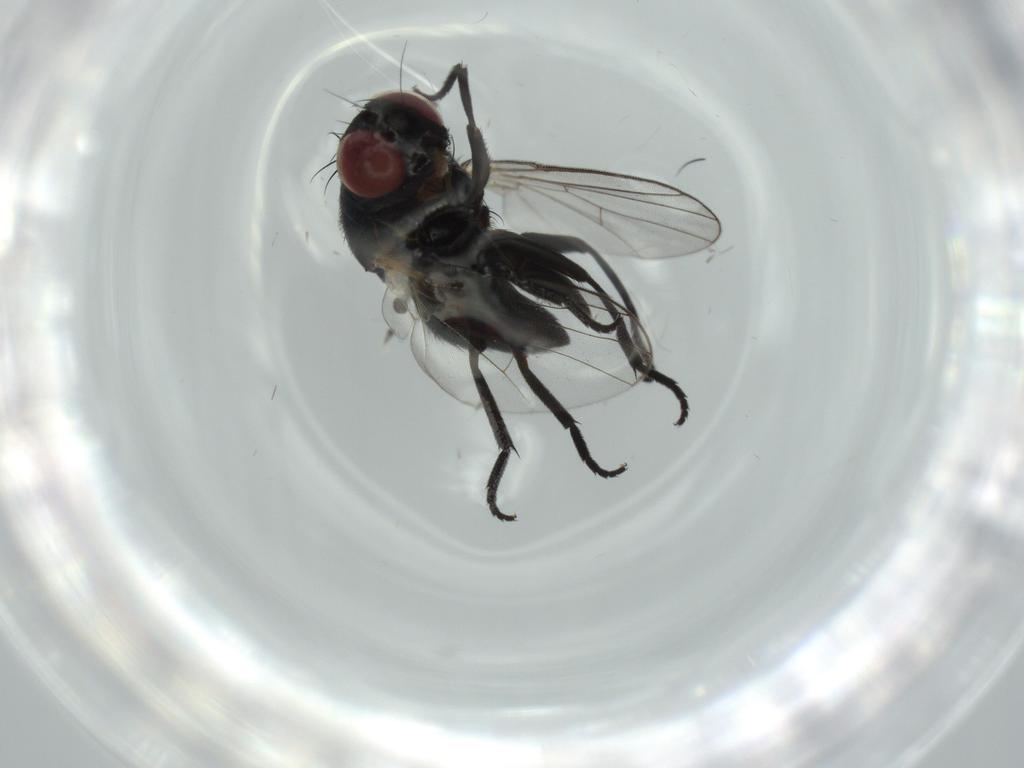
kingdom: Animalia
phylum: Arthropoda
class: Insecta
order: Diptera
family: Agromyzidae
